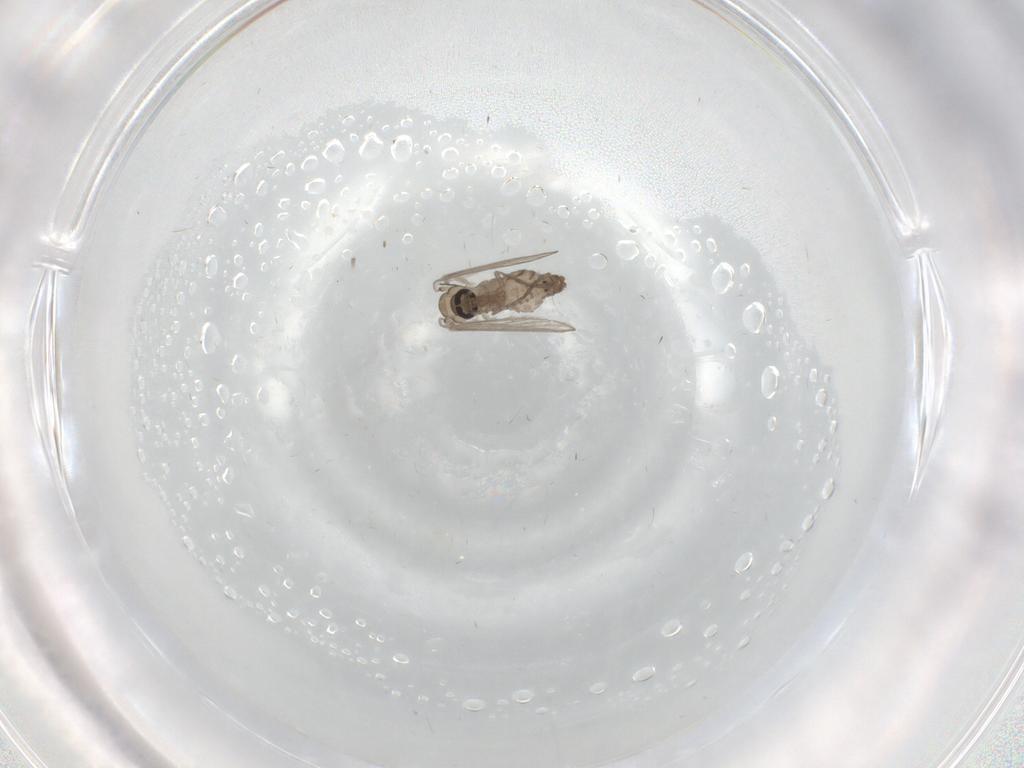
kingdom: Animalia
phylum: Arthropoda
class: Insecta
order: Diptera
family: Psychodidae
